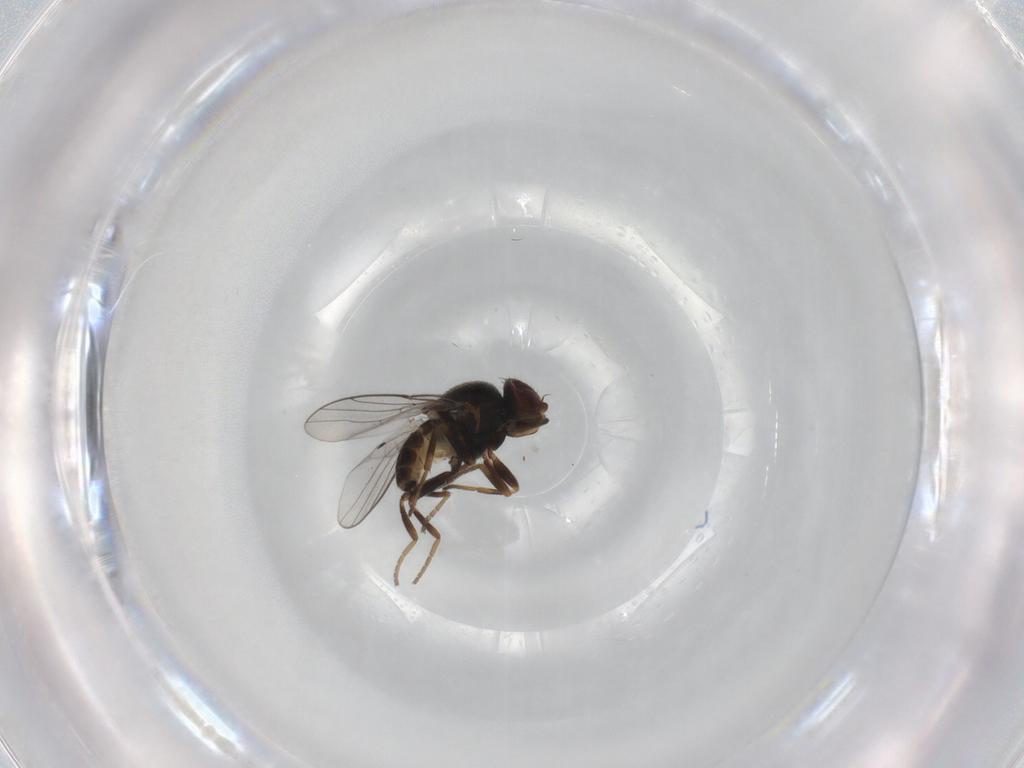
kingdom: Animalia
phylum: Arthropoda
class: Insecta
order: Diptera
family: Chloropidae
